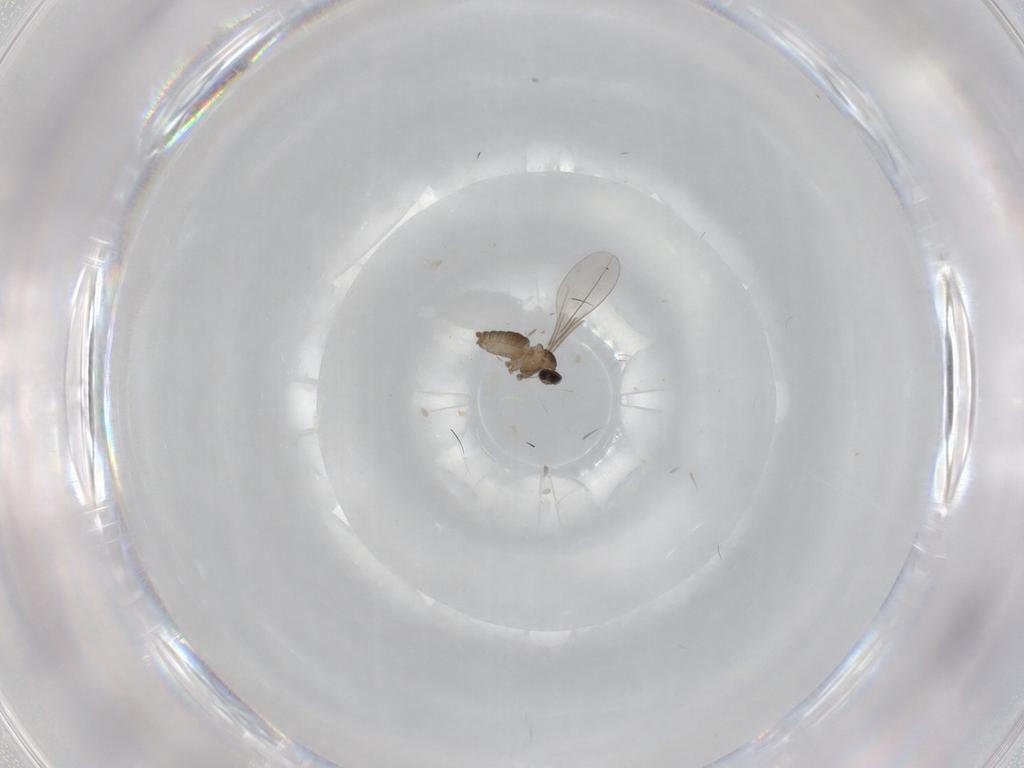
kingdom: Animalia
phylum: Arthropoda
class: Insecta
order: Diptera
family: Cecidomyiidae
